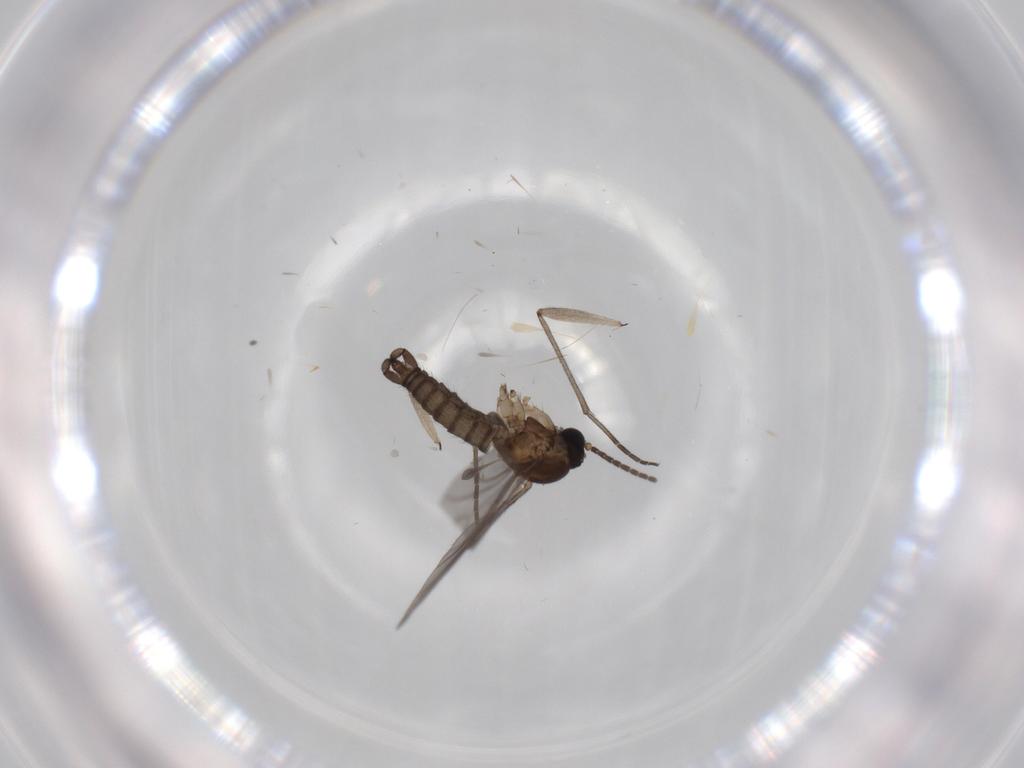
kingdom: Animalia
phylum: Arthropoda
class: Insecta
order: Diptera
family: Sciaridae
